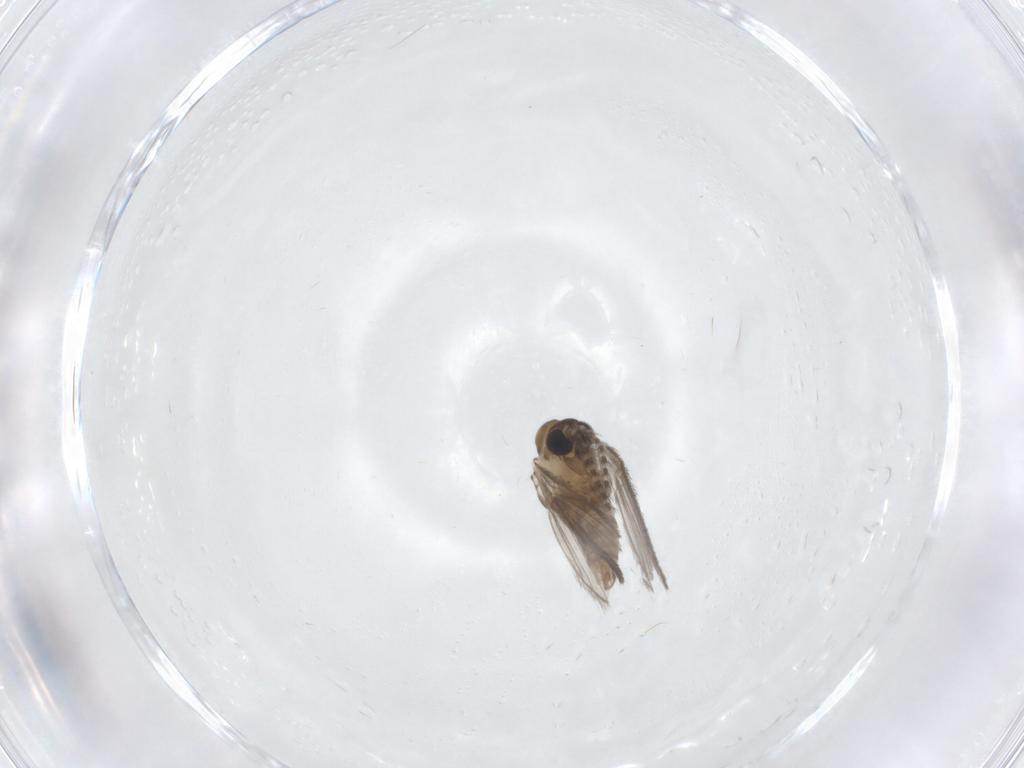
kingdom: Animalia
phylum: Arthropoda
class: Insecta
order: Diptera
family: Psychodidae
